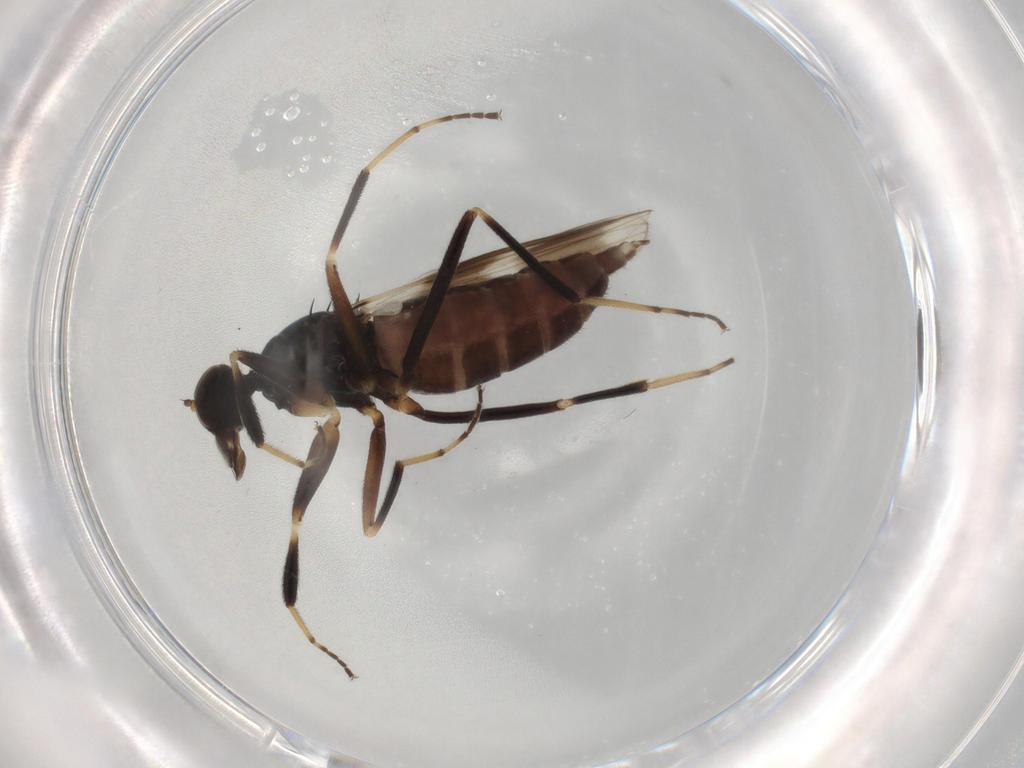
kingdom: Animalia
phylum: Arthropoda
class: Insecta
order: Diptera
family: Hybotidae
